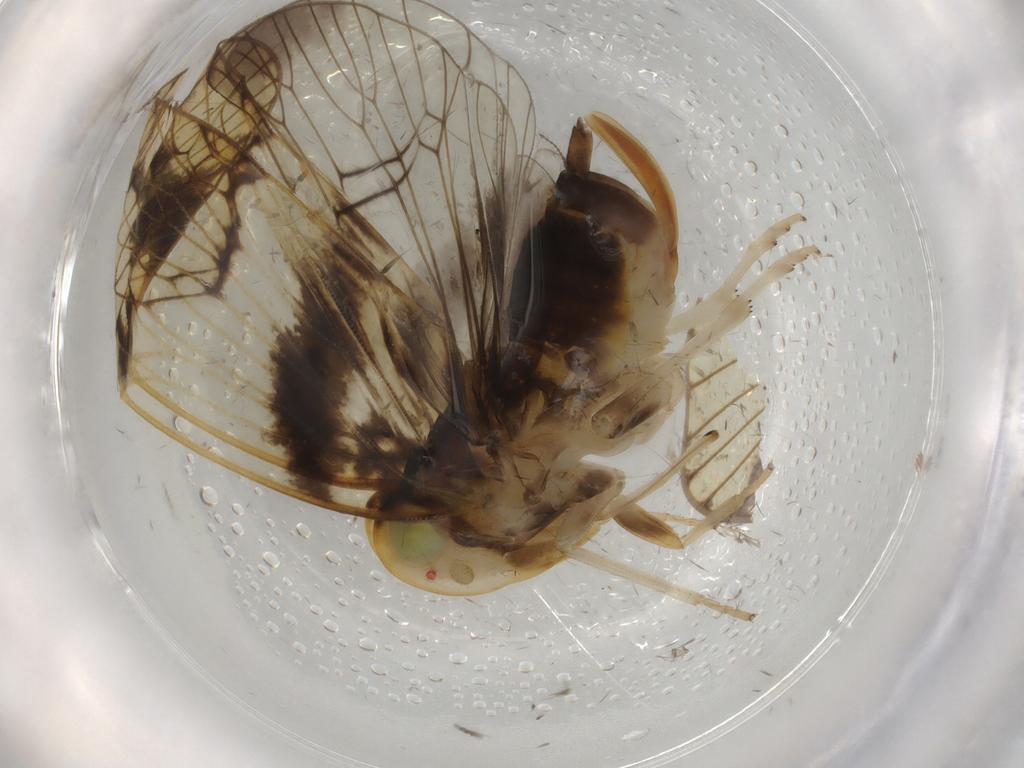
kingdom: Animalia
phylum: Arthropoda
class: Insecta
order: Hemiptera
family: Cixiidae
